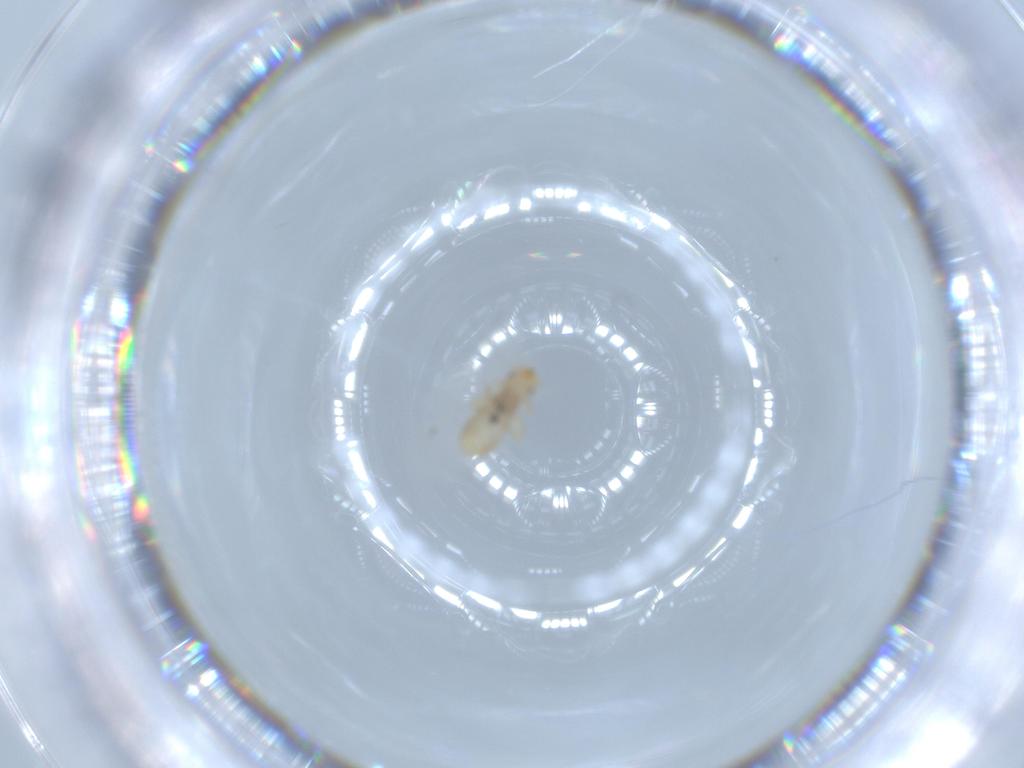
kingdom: Animalia
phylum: Arthropoda
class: Insecta
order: Psocodea
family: Liposcelididae
